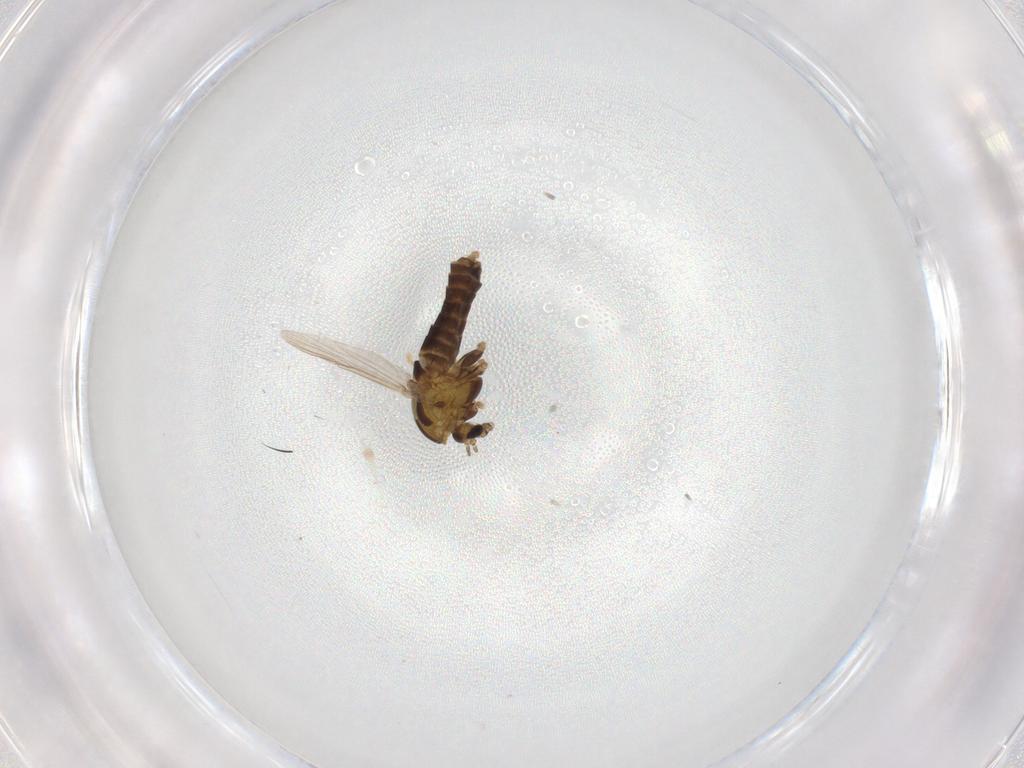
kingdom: Animalia
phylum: Arthropoda
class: Insecta
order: Diptera
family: Chironomidae
